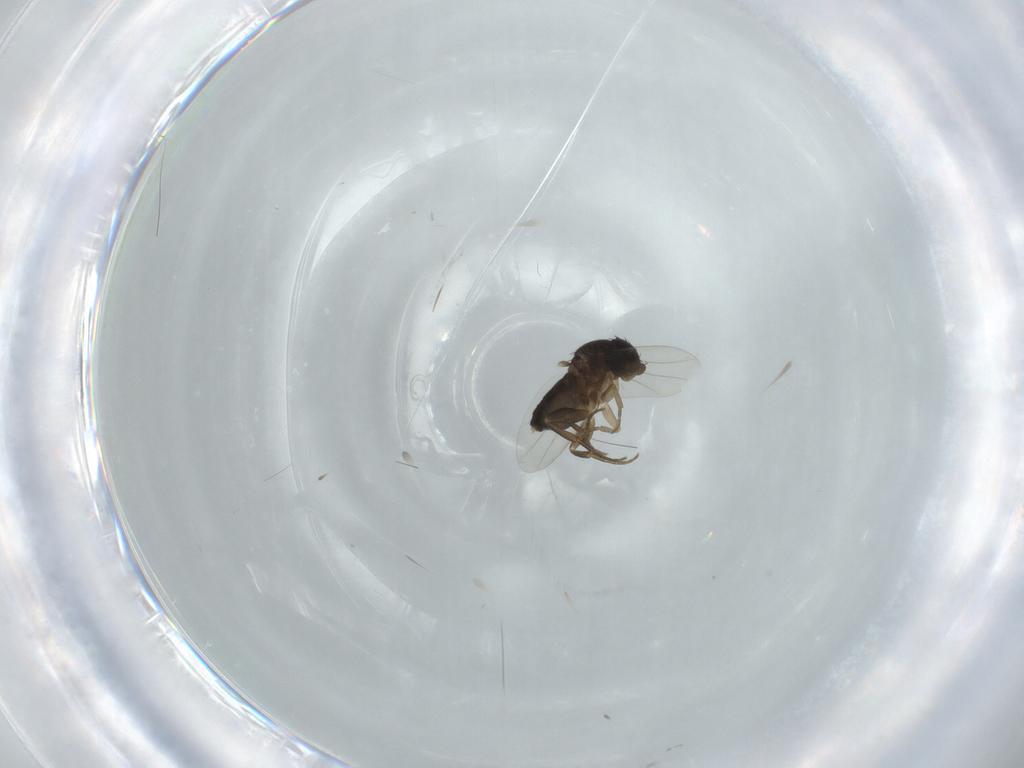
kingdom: Animalia
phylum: Arthropoda
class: Insecta
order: Diptera
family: Phoridae
